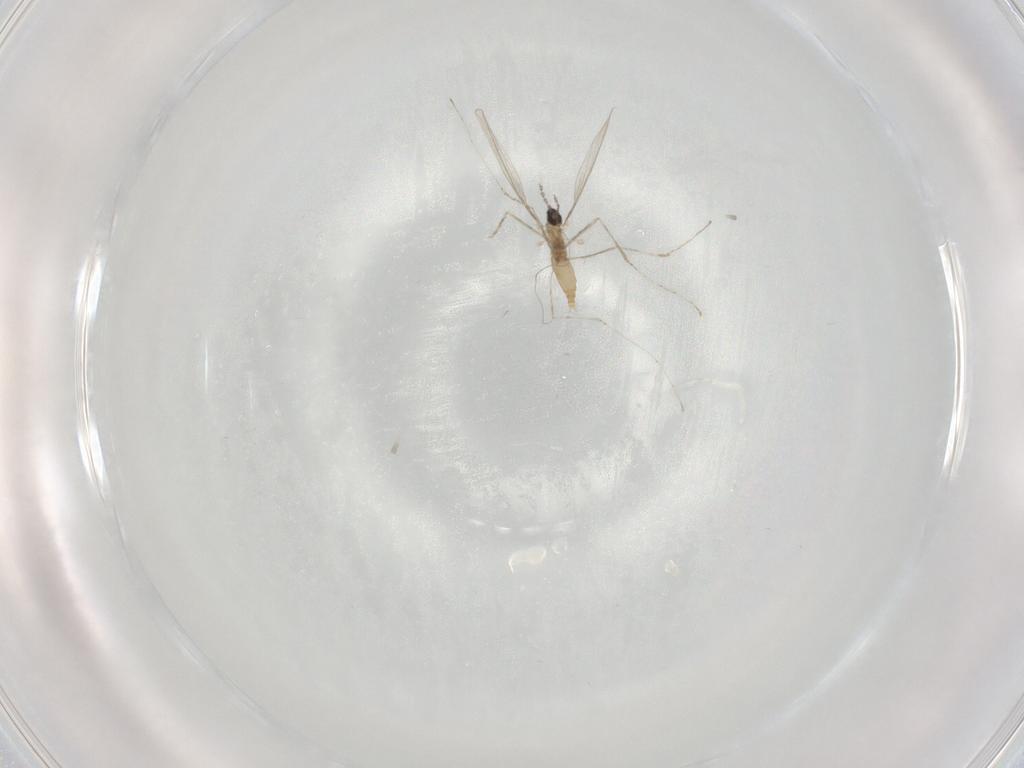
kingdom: Animalia
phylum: Arthropoda
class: Insecta
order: Diptera
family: Cecidomyiidae
